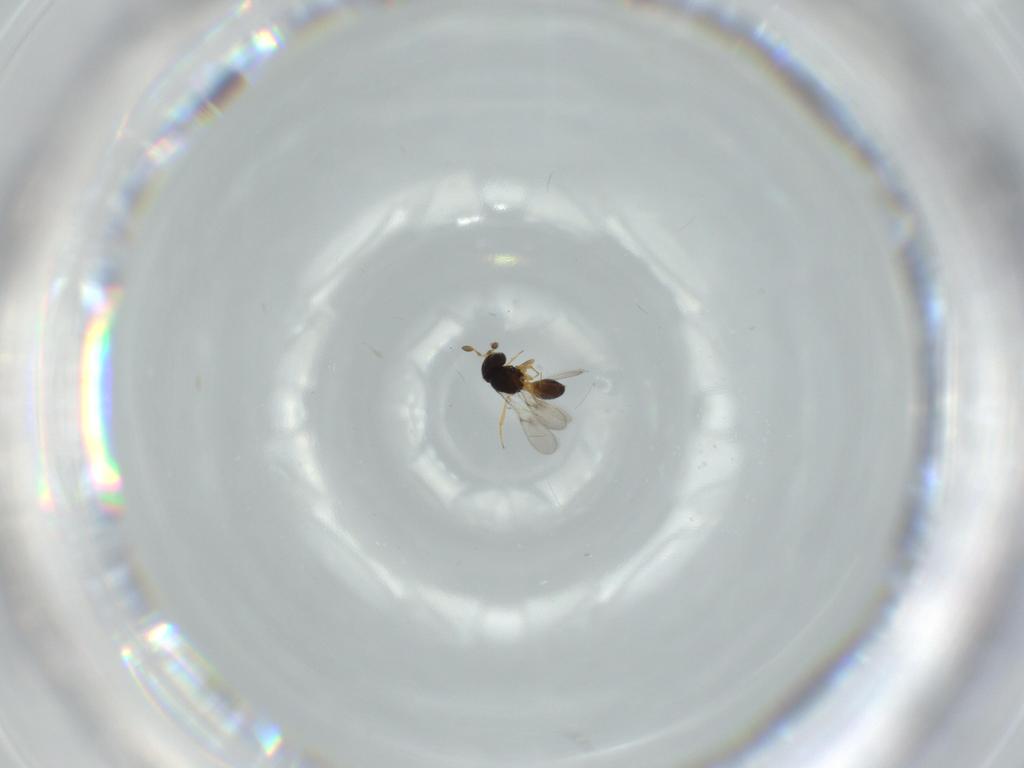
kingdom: Animalia
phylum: Arthropoda
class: Insecta
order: Hymenoptera
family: Scelionidae
